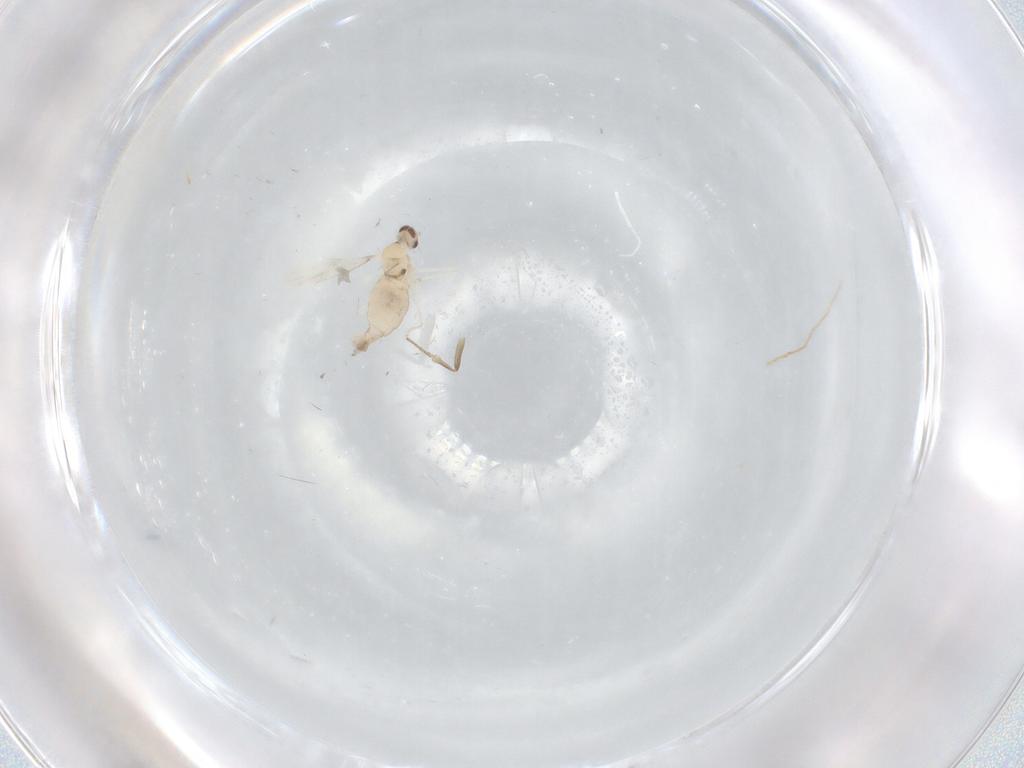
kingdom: Animalia
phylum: Arthropoda
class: Insecta
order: Diptera
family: Cecidomyiidae
